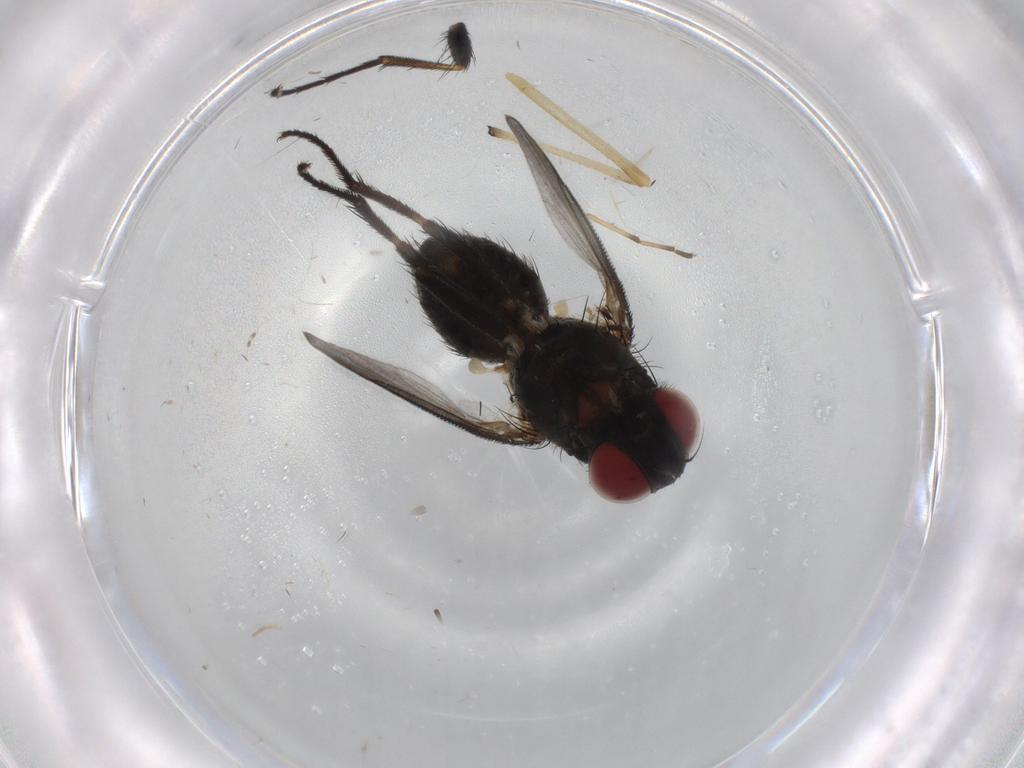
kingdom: Animalia
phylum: Arthropoda
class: Insecta
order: Diptera
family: Muscidae
